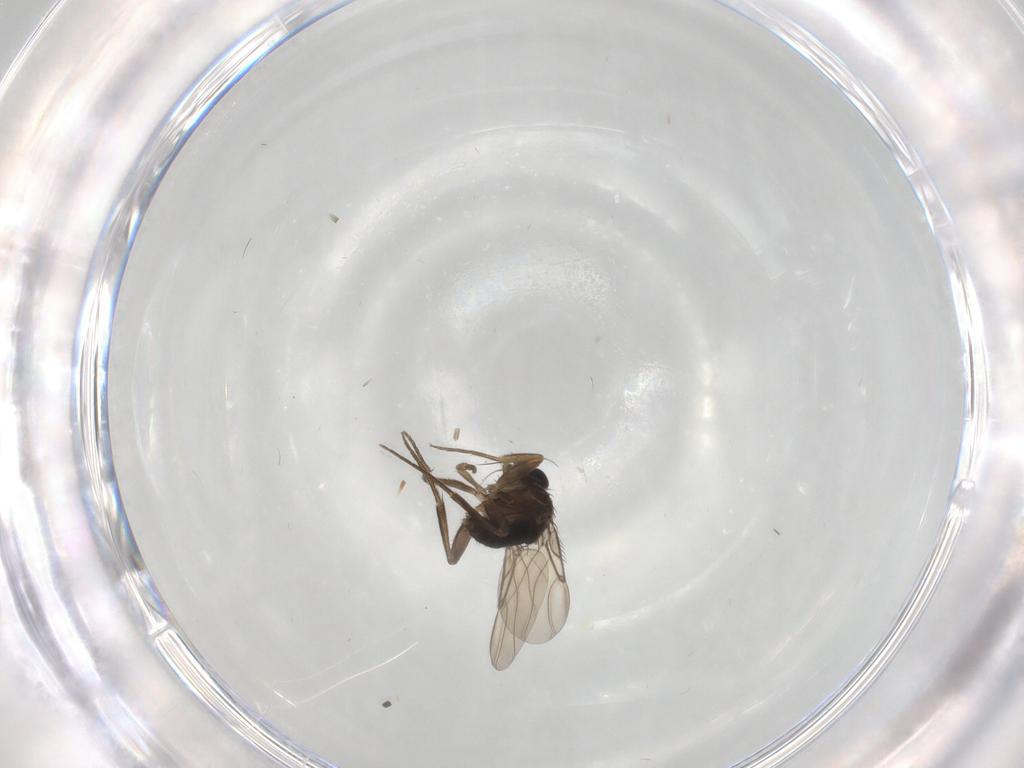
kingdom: Animalia
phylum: Arthropoda
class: Insecta
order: Diptera
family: Phoridae
